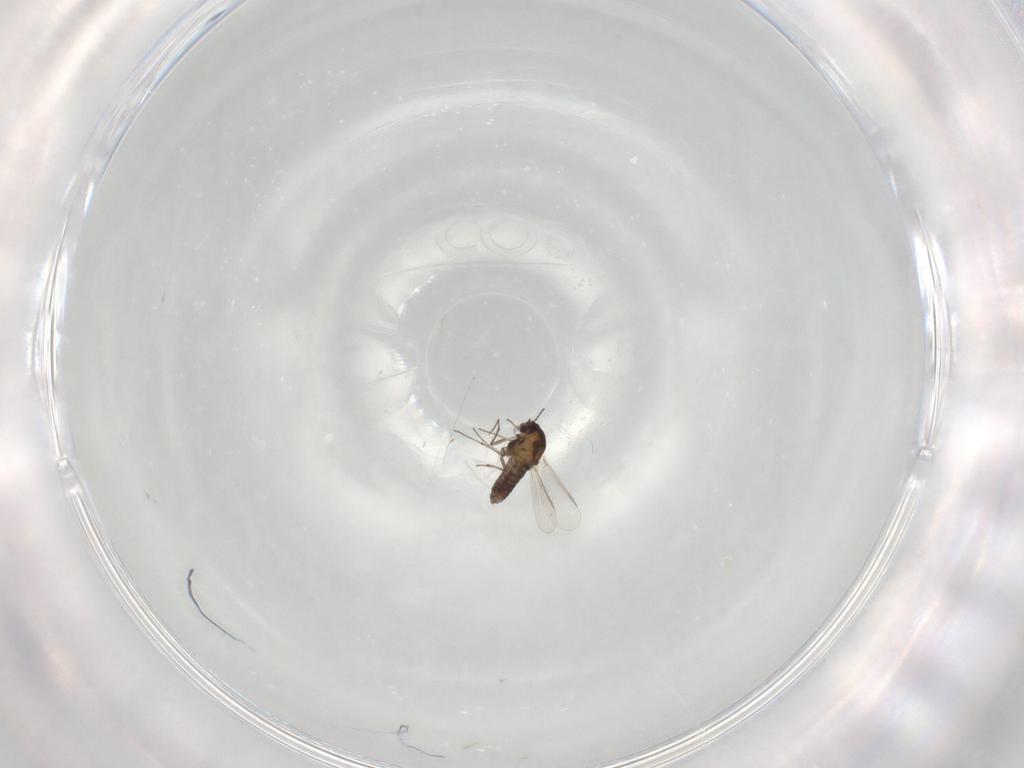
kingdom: Animalia
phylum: Arthropoda
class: Insecta
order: Diptera
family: Chironomidae
